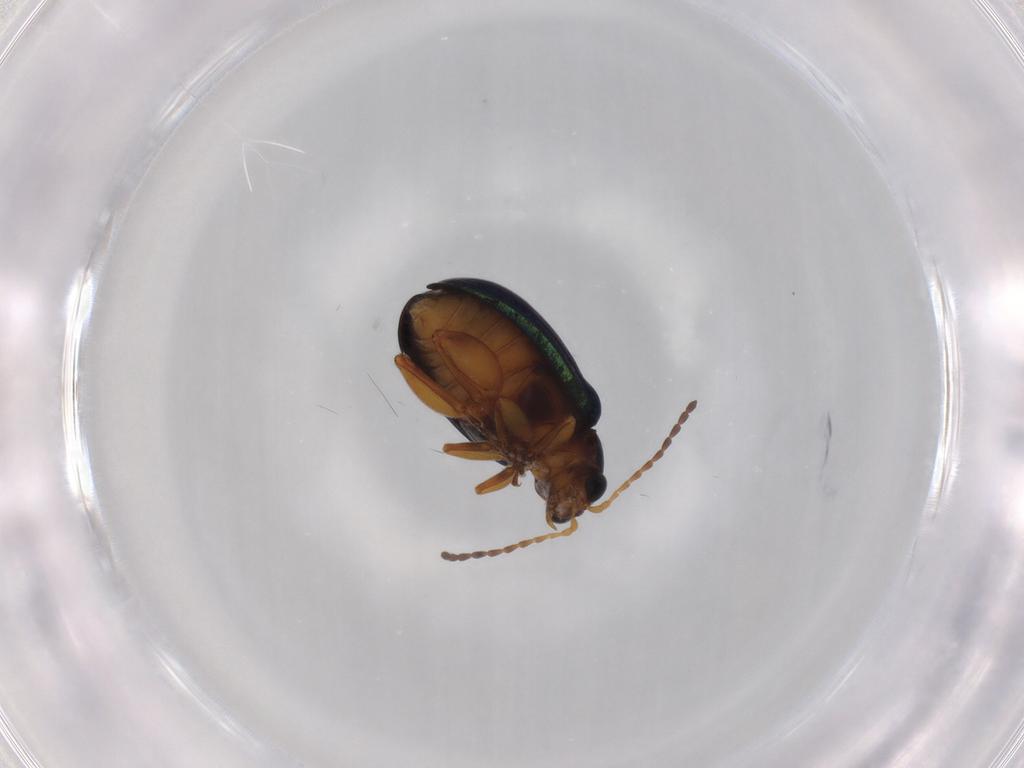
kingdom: Animalia
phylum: Arthropoda
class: Insecta
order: Coleoptera
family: Chrysomelidae
